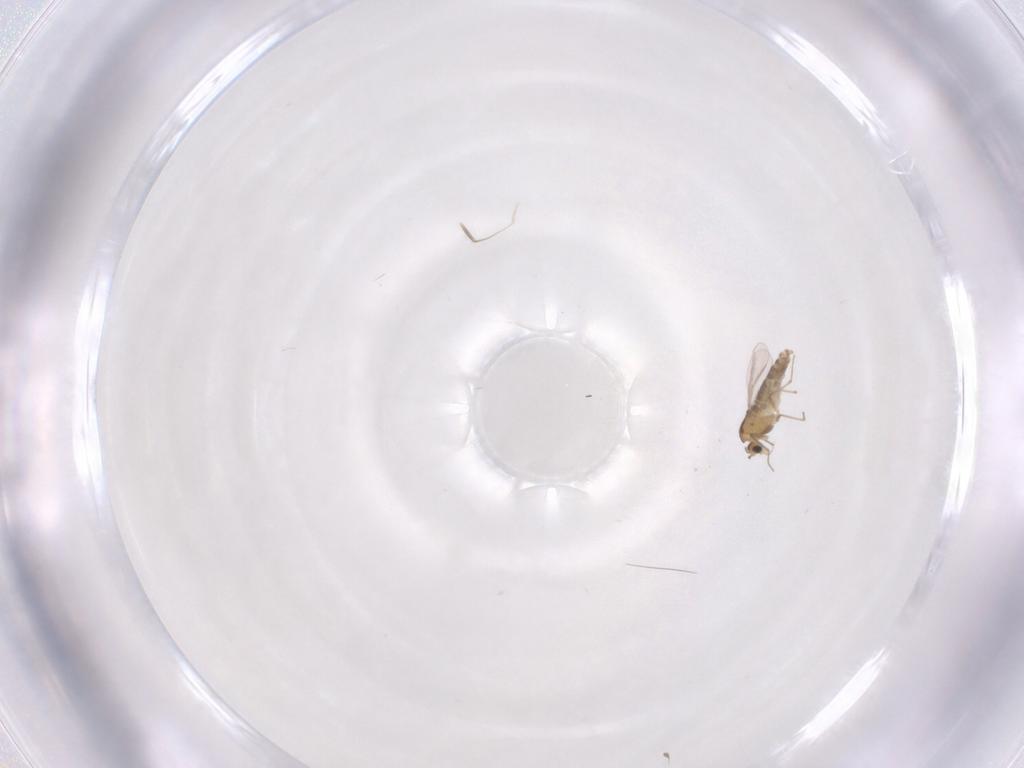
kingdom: Animalia
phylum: Arthropoda
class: Insecta
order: Diptera
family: Chironomidae
